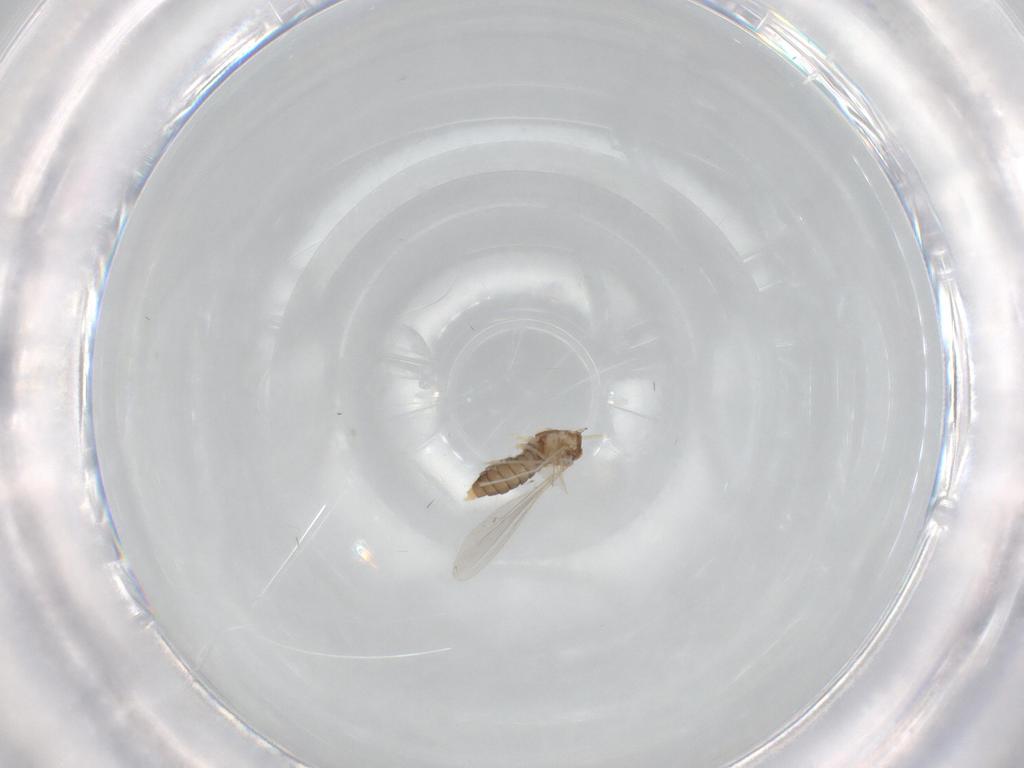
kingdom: Animalia
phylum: Arthropoda
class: Insecta
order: Diptera
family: Cecidomyiidae
